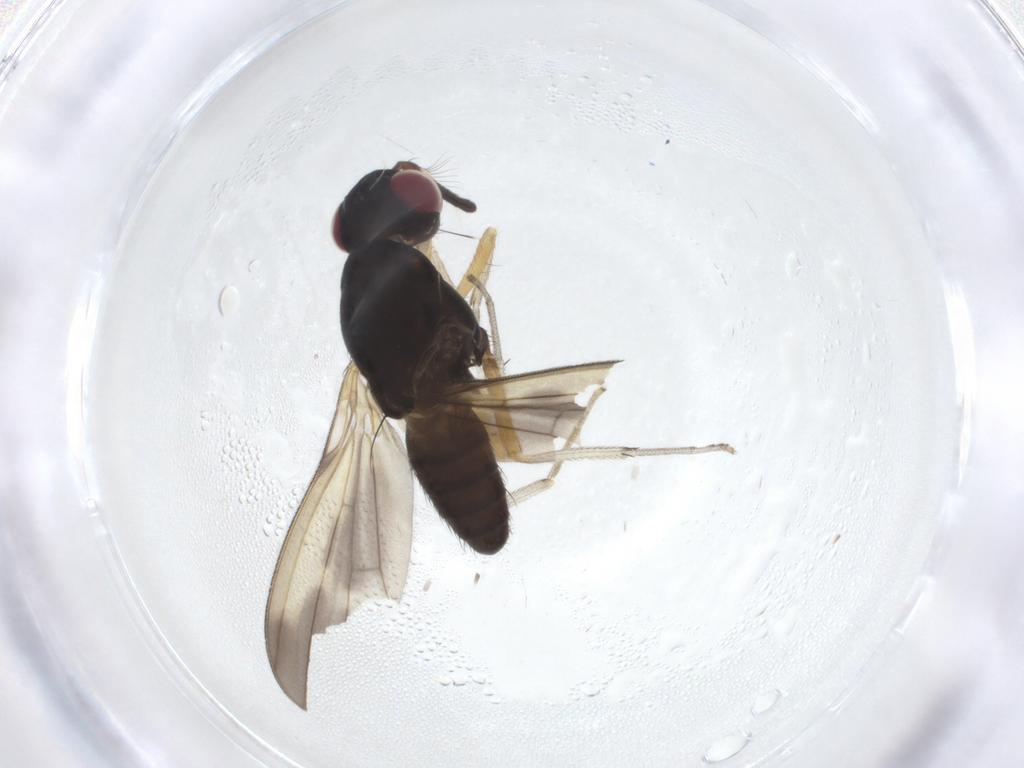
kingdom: Animalia
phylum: Arthropoda
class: Insecta
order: Diptera
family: Lauxaniidae
